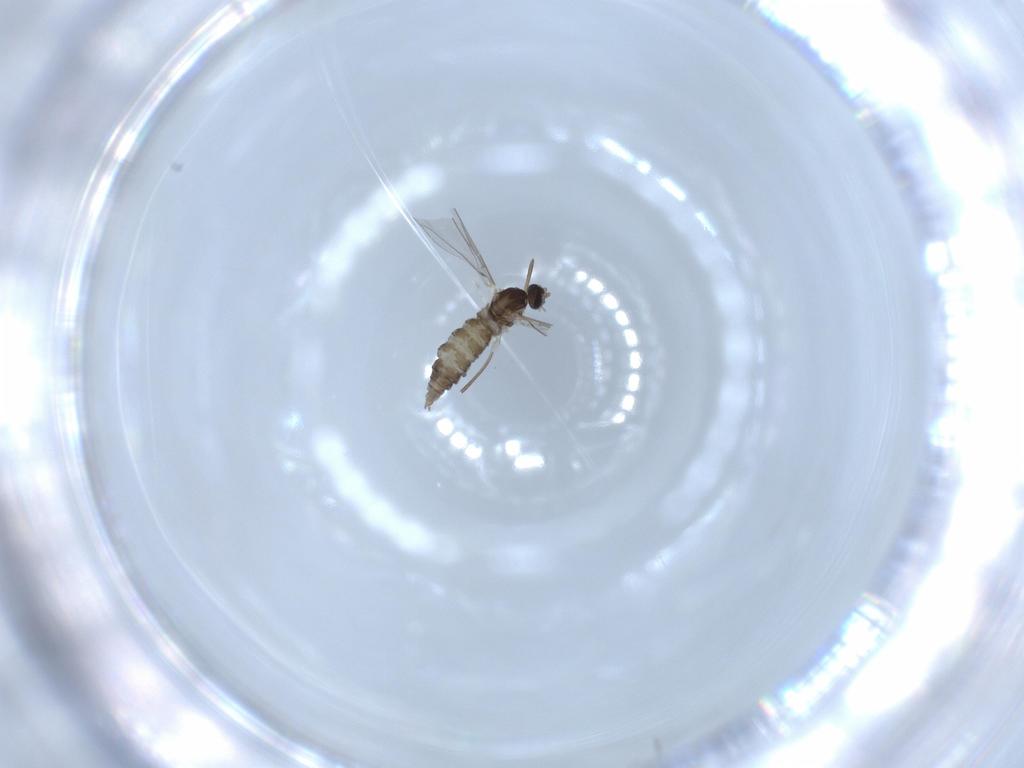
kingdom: Animalia
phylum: Arthropoda
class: Insecta
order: Diptera
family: Cecidomyiidae
